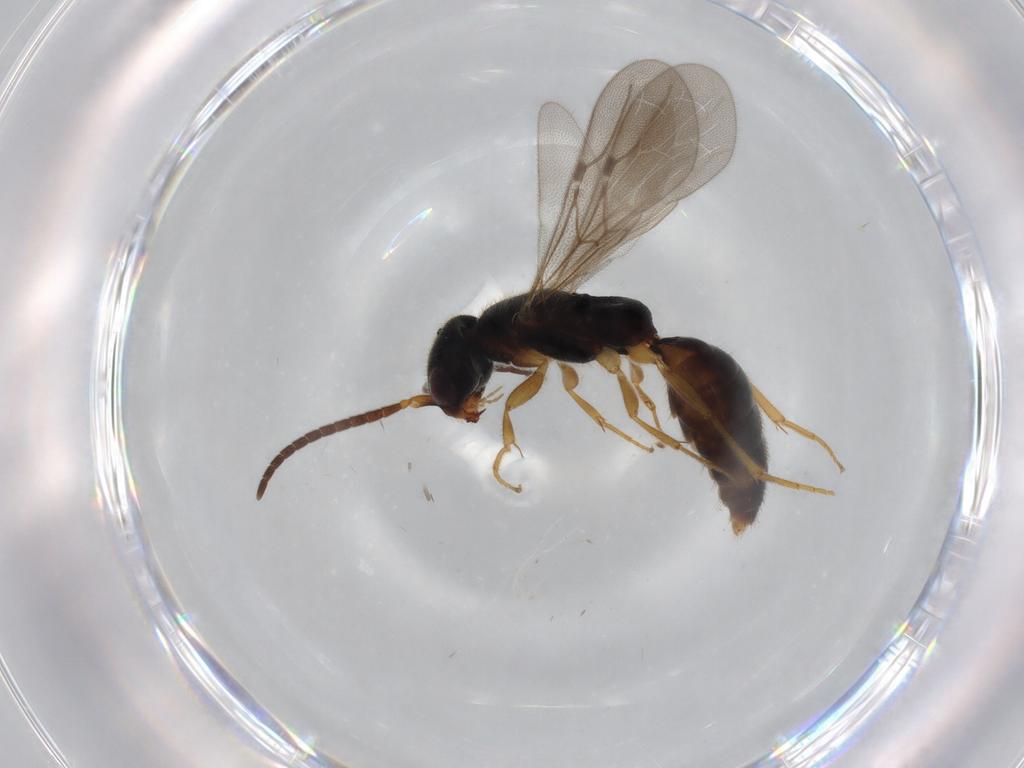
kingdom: Animalia
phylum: Arthropoda
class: Insecta
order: Hymenoptera
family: Bethylidae
